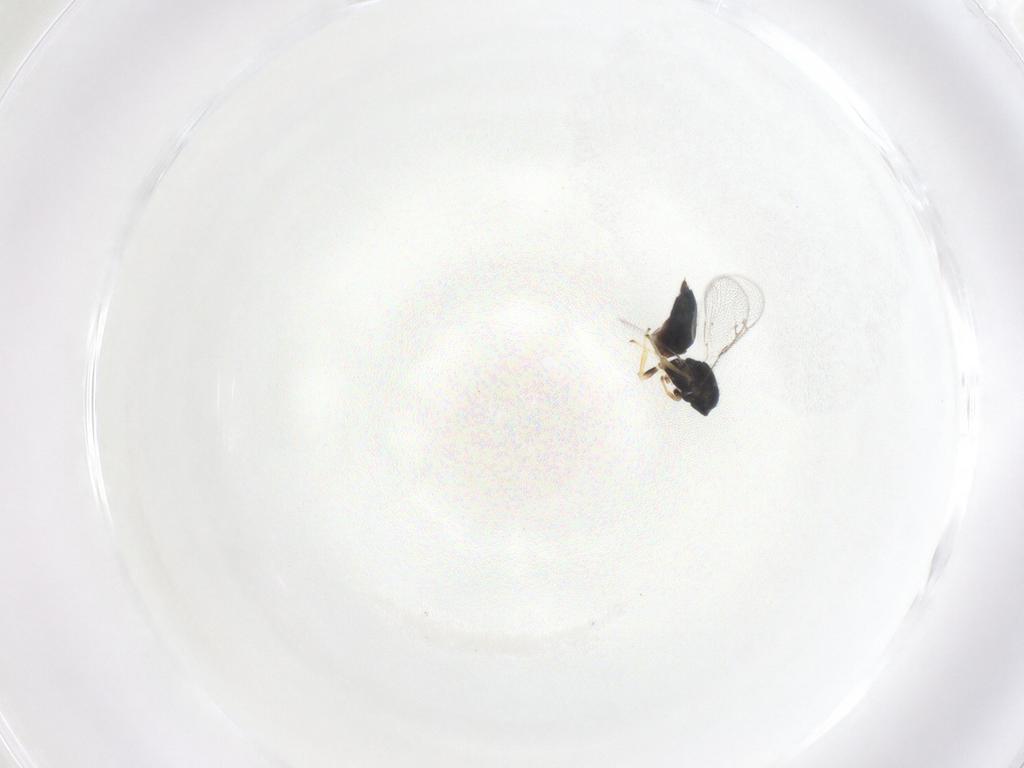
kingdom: Animalia
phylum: Arthropoda
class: Insecta
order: Hymenoptera
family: Pteromalidae
